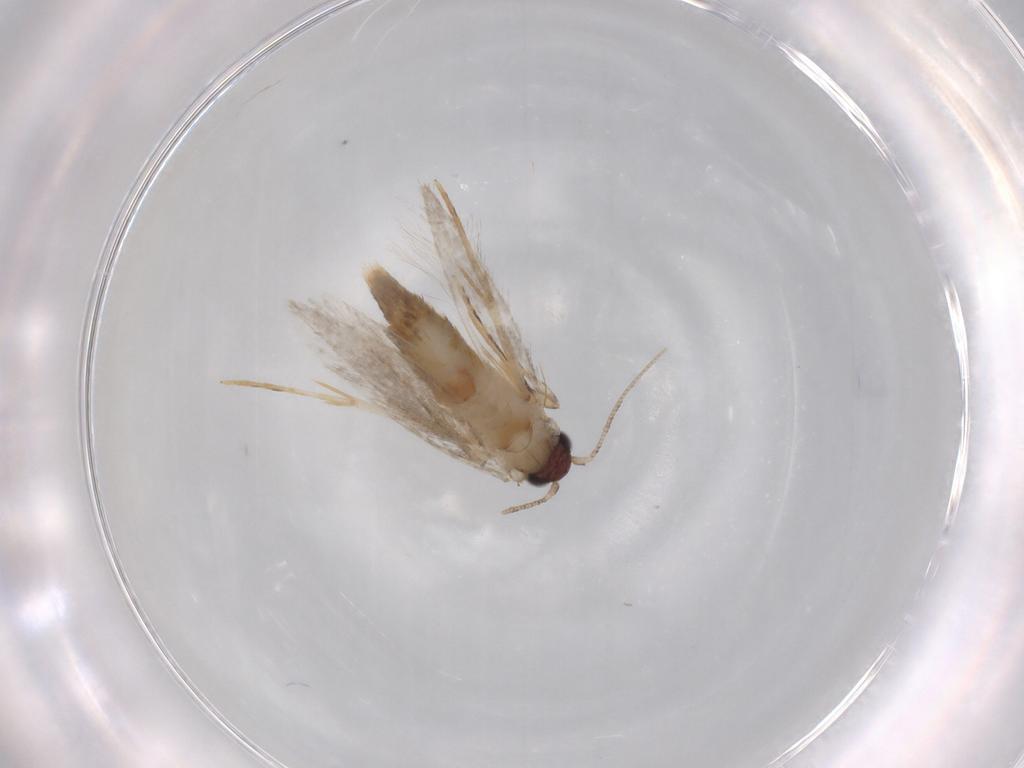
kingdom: Animalia
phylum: Arthropoda
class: Insecta
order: Lepidoptera
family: Tineidae
